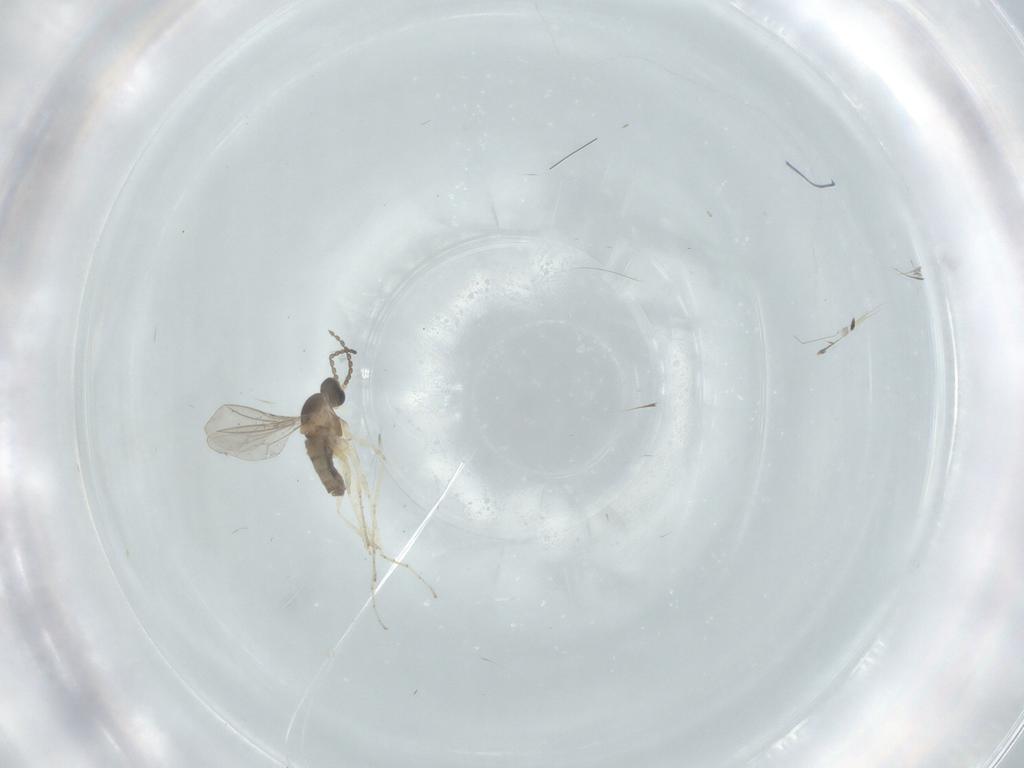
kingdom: Animalia
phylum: Arthropoda
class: Insecta
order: Diptera
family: Cecidomyiidae
